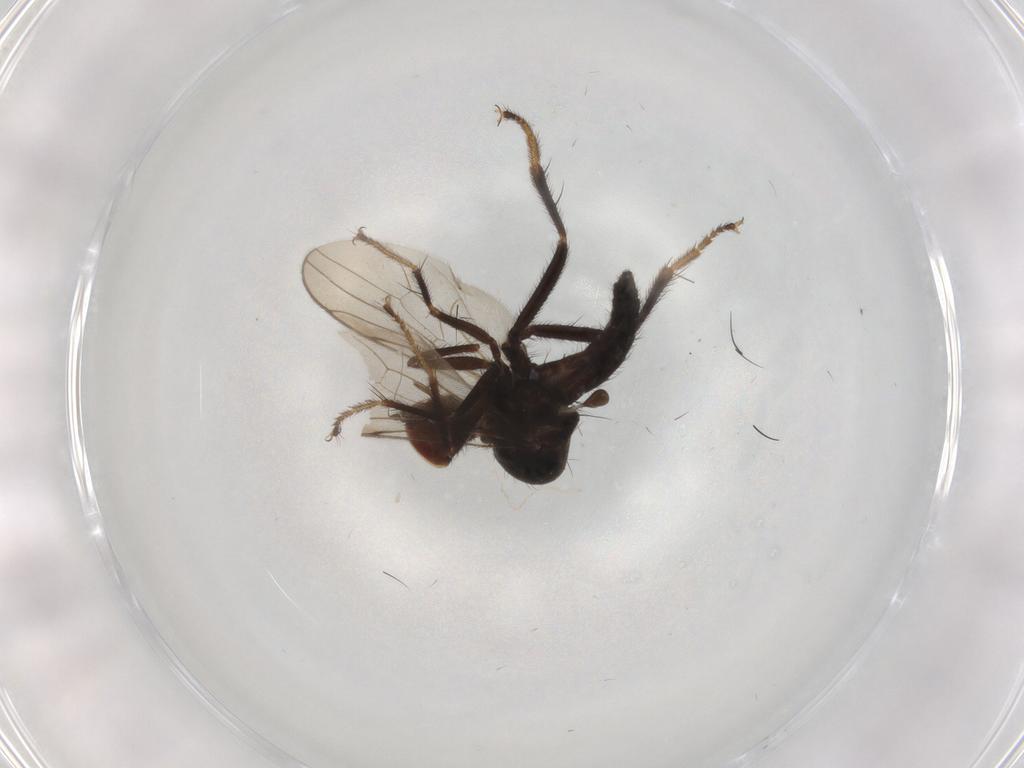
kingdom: Animalia
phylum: Arthropoda
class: Insecta
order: Diptera
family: Hybotidae
